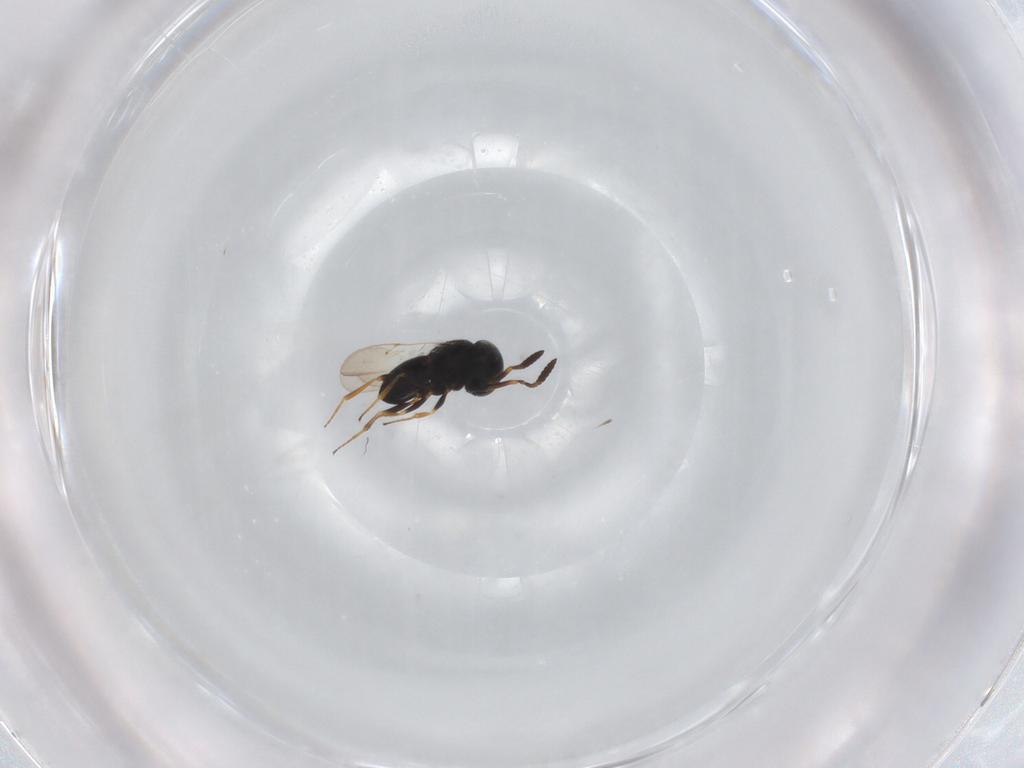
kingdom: Animalia
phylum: Arthropoda
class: Insecta
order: Coleoptera
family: Curculionidae
